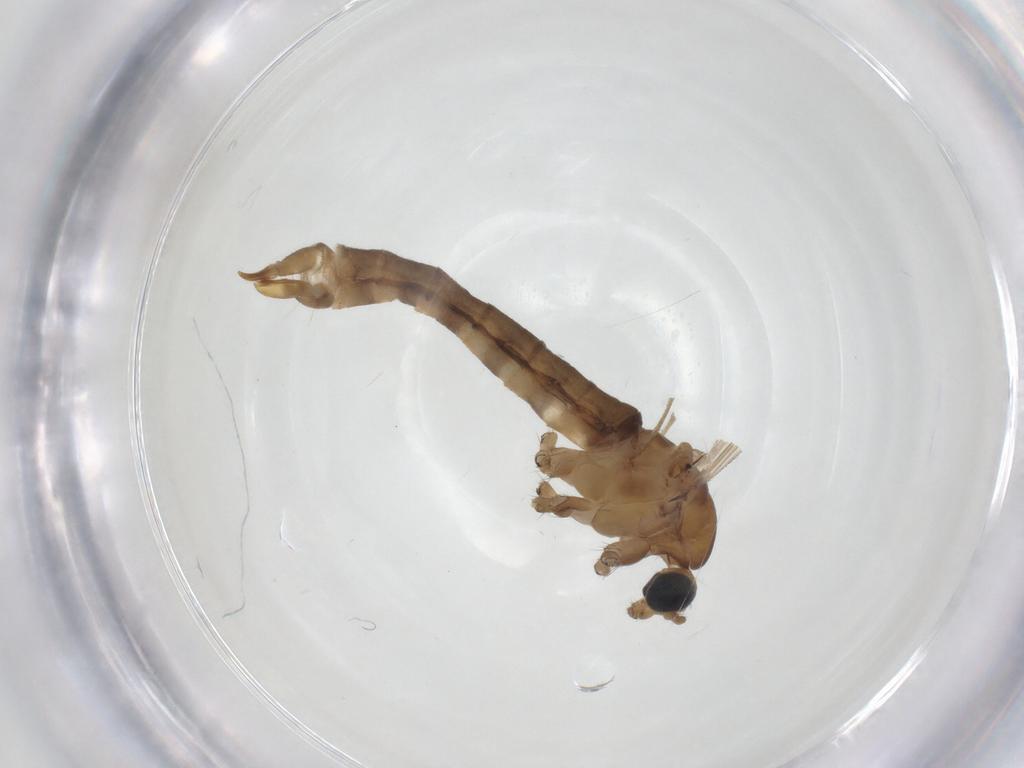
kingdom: Animalia
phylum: Arthropoda
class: Insecta
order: Diptera
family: Limoniidae
